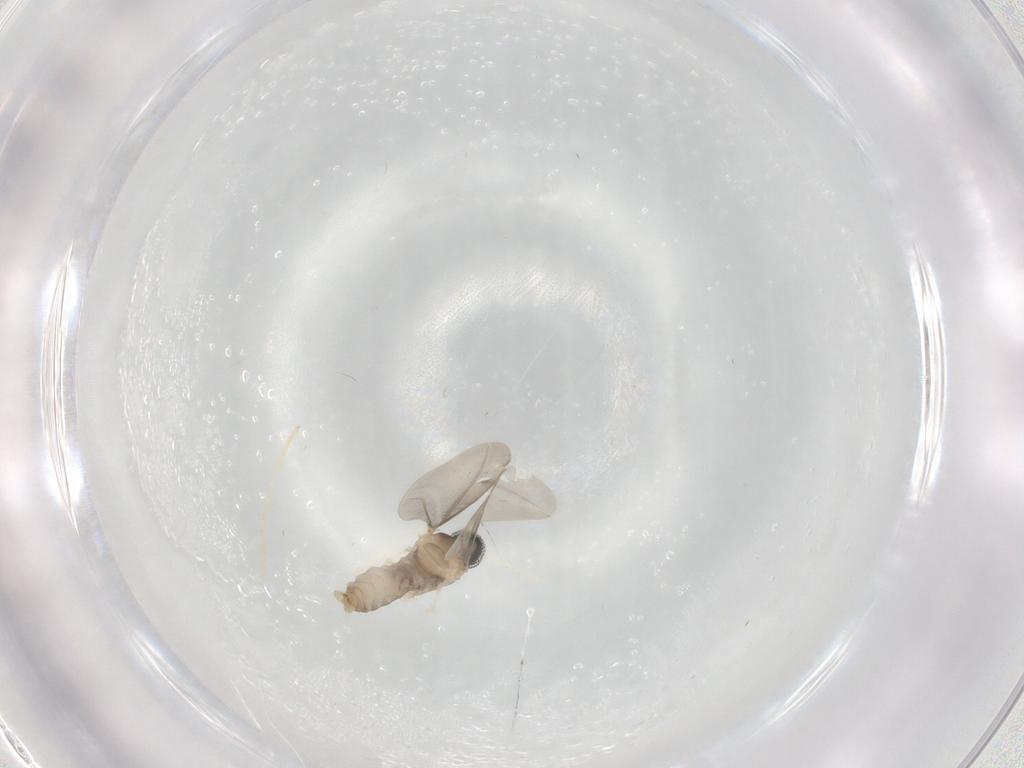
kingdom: Animalia
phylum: Arthropoda
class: Insecta
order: Diptera
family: Cecidomyiidae
